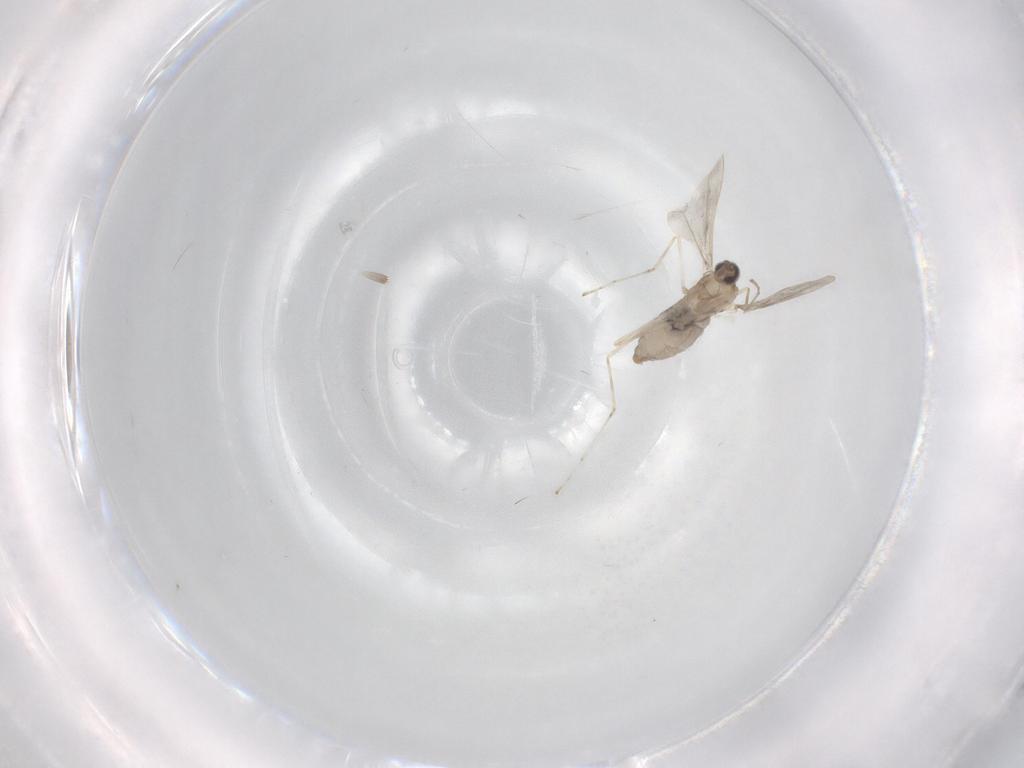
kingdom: Animalia
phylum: Arthropoda
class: Insecta
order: Diptera
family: Cecidomyiidae
